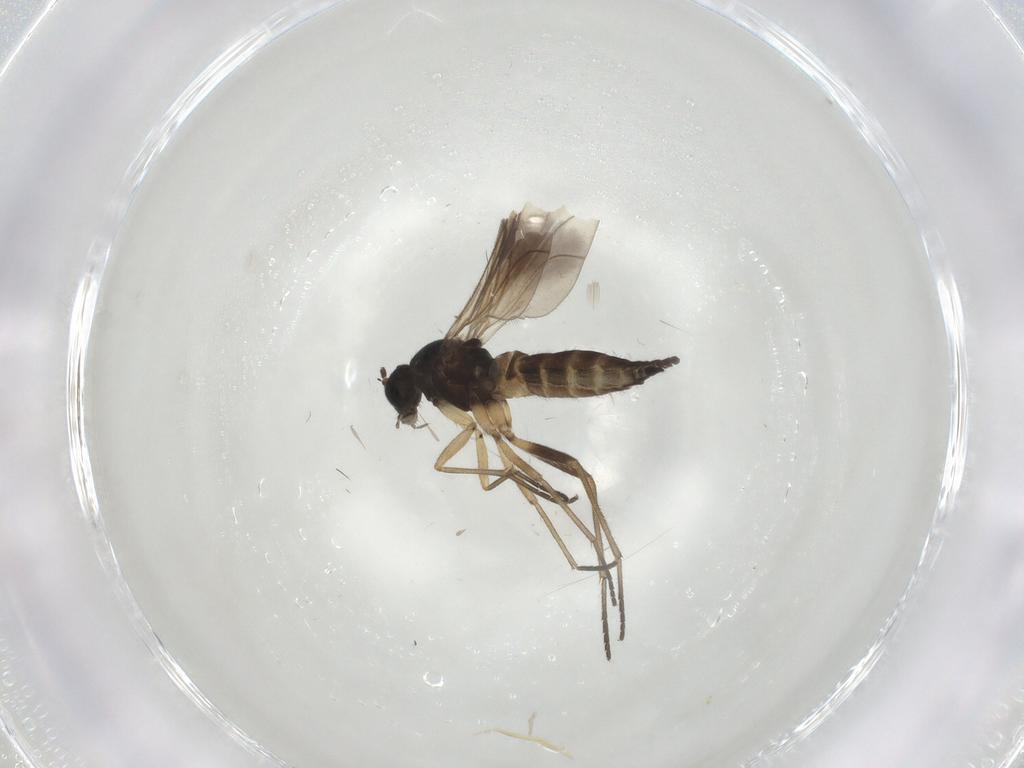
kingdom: Animalia
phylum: Arthropoda
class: Insecta
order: Diptera
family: Sciaridae
